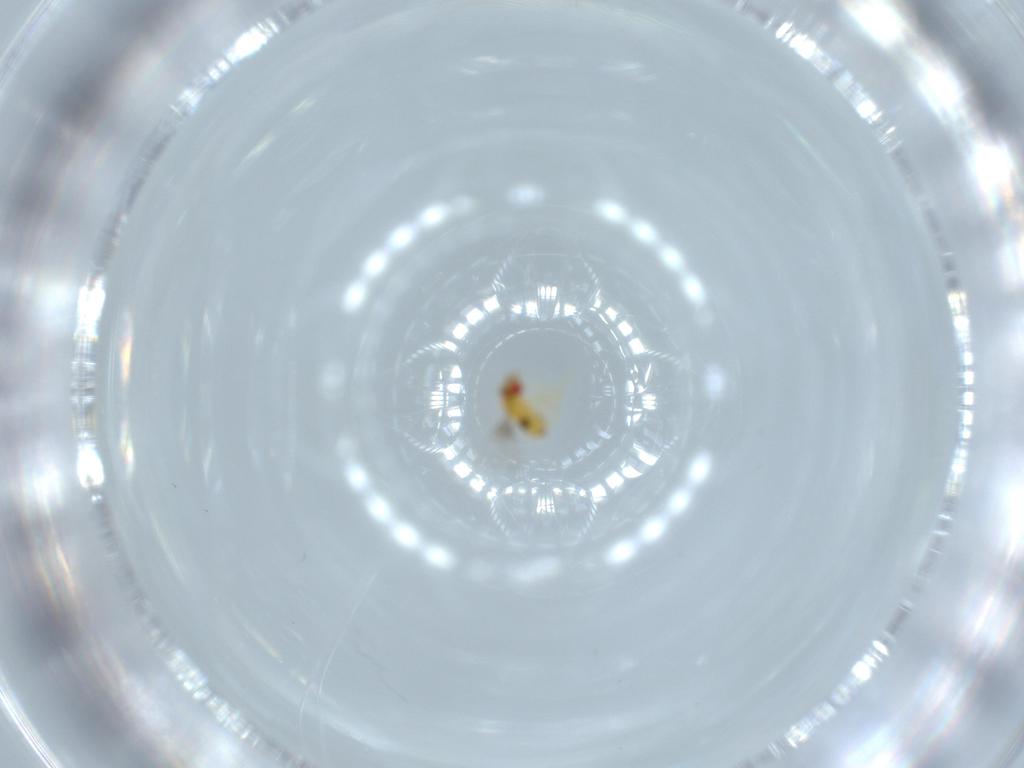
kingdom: Animalia
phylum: Arthropoda
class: Insecta
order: Hymenoptera
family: Trichogrammatidae
